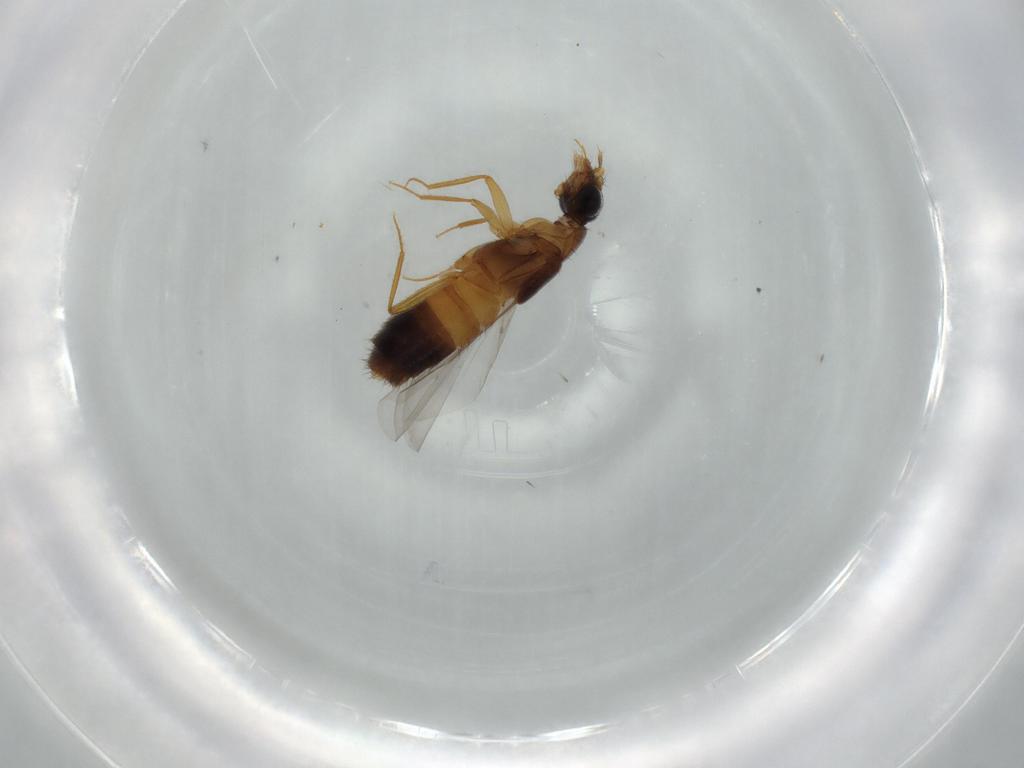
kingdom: Animalia
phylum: Arthropoda
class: Insecta
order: Coleoptera
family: Staphylinidae
